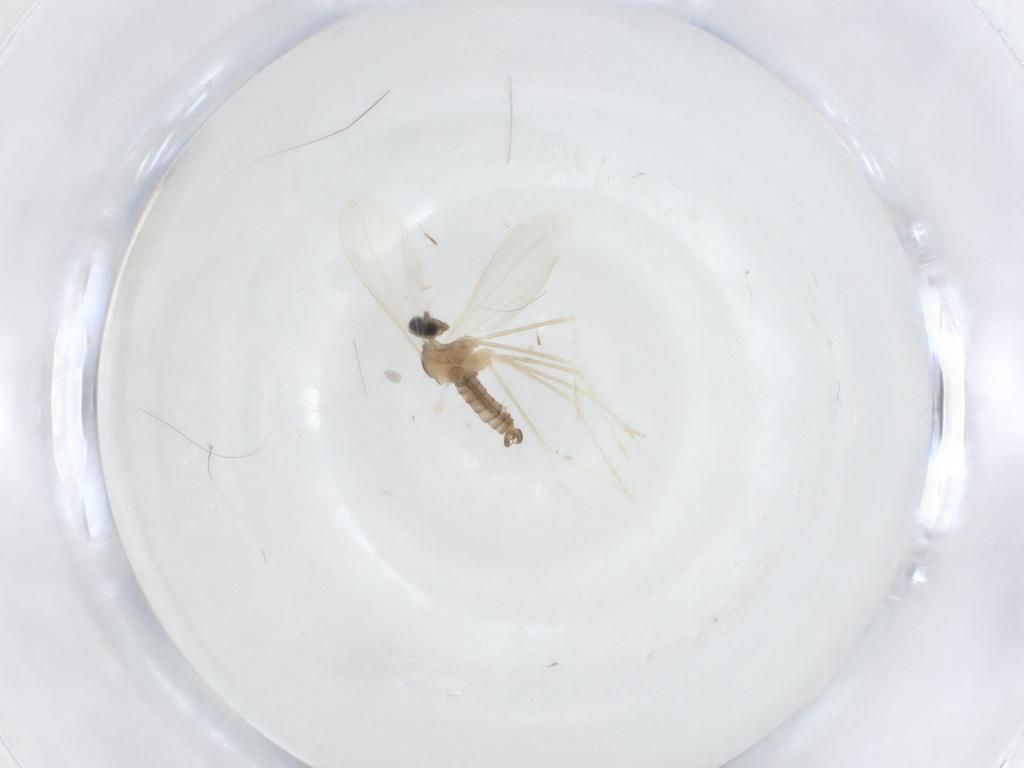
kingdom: Animalia
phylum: Arthropoda
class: Insecta
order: Diptera
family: Cecidomyiidae
